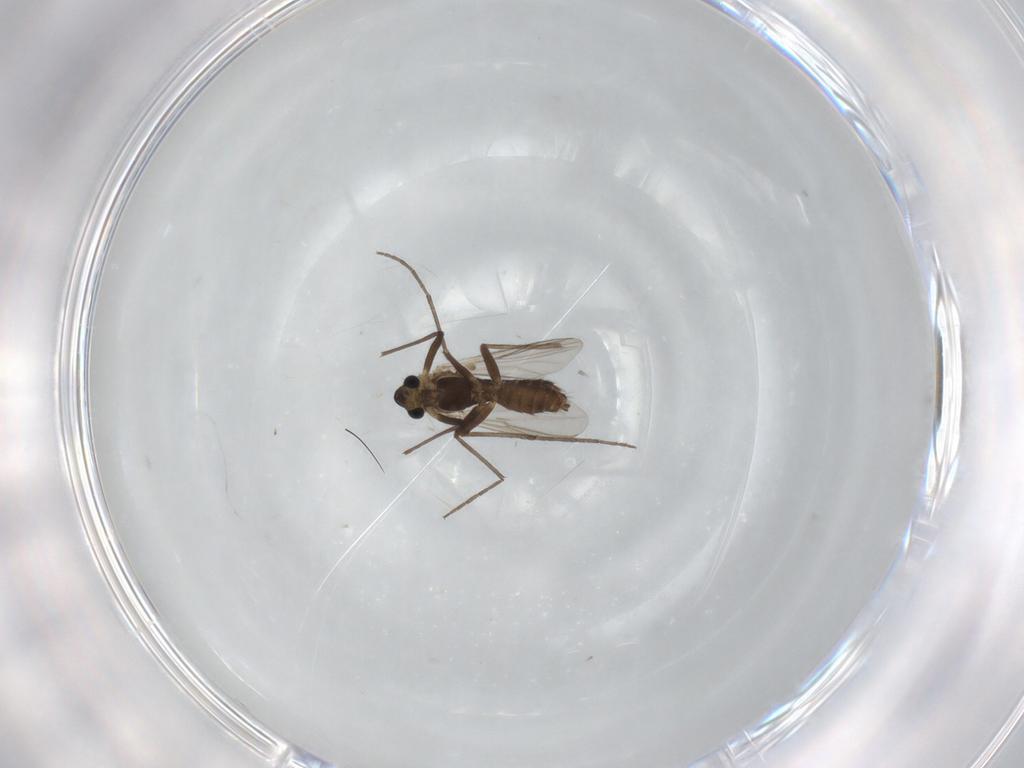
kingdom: Animalia
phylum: Arthropoda
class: Insecta
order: Diptera
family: Chironomidae
